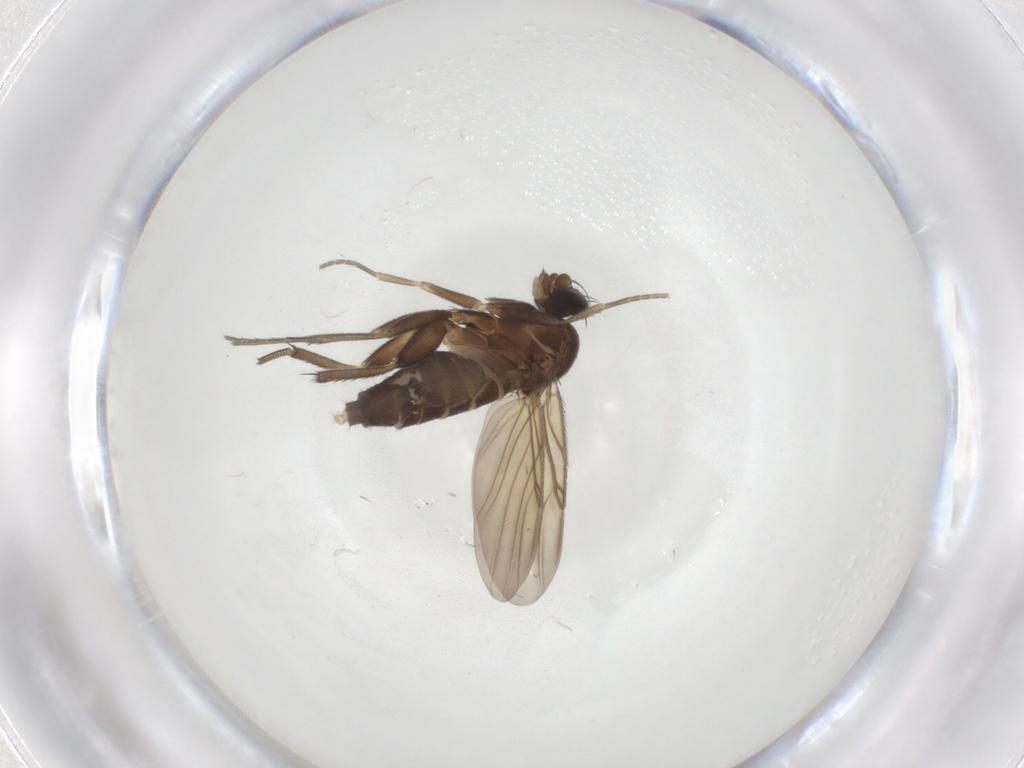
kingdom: Animalia
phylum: Arthropoda
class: Insecta
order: Diptera
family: Phoridae
